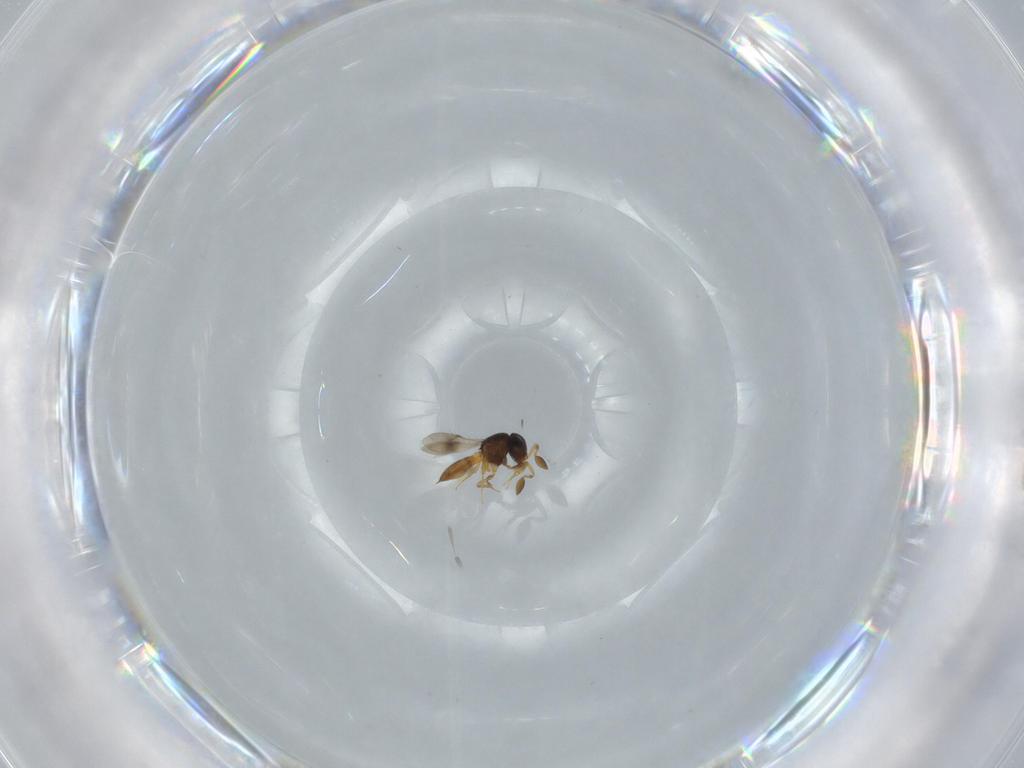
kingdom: Animalia
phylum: Arthropoda
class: Insecta
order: Hymenoptera
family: Scelionidae
